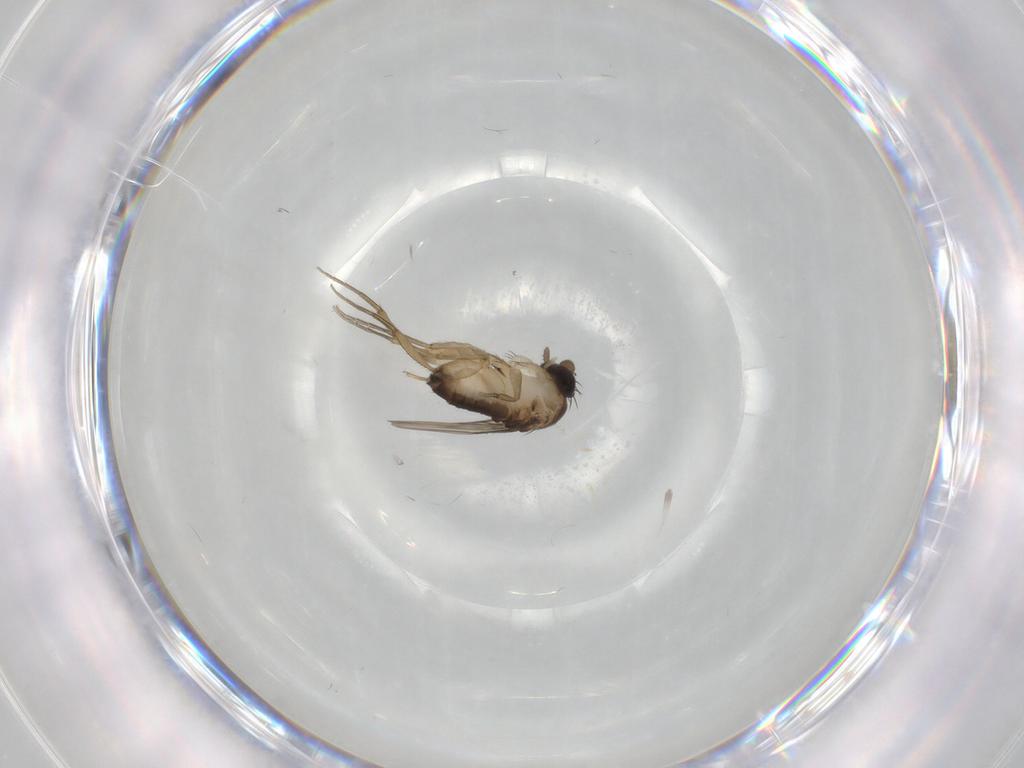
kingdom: Animalia
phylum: Arthropoda
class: Insecta
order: Diptera
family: Phoridae
